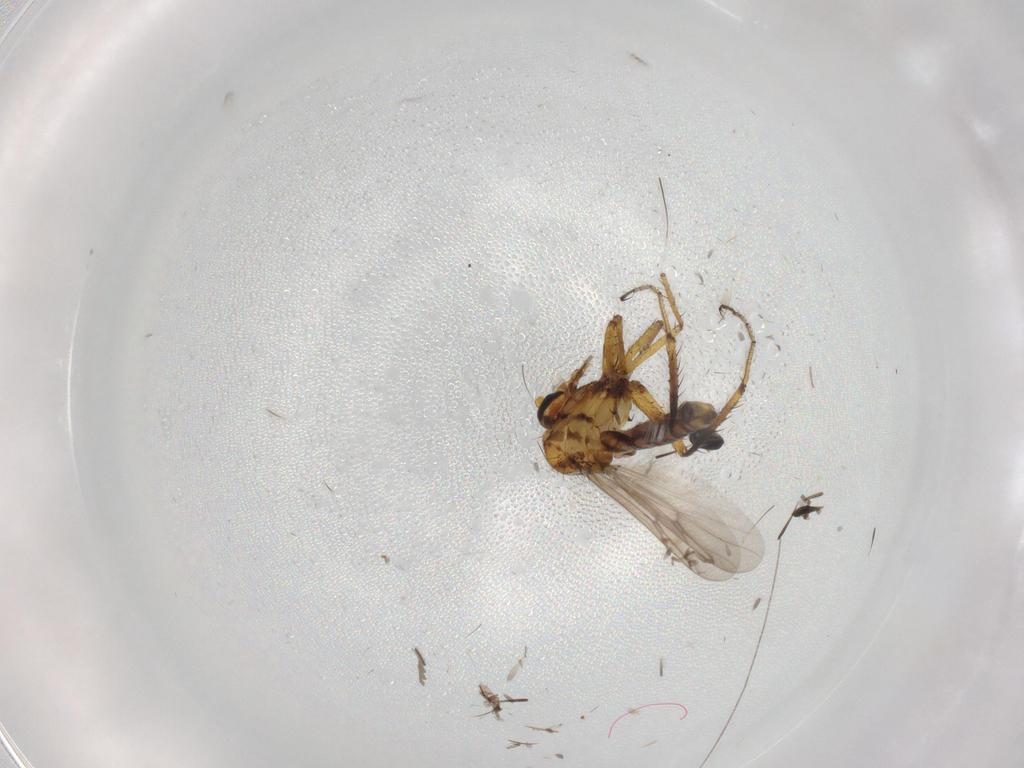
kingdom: Animalia
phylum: Arthropoda
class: Insecta
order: Diptera
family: Ceratopogonidae
